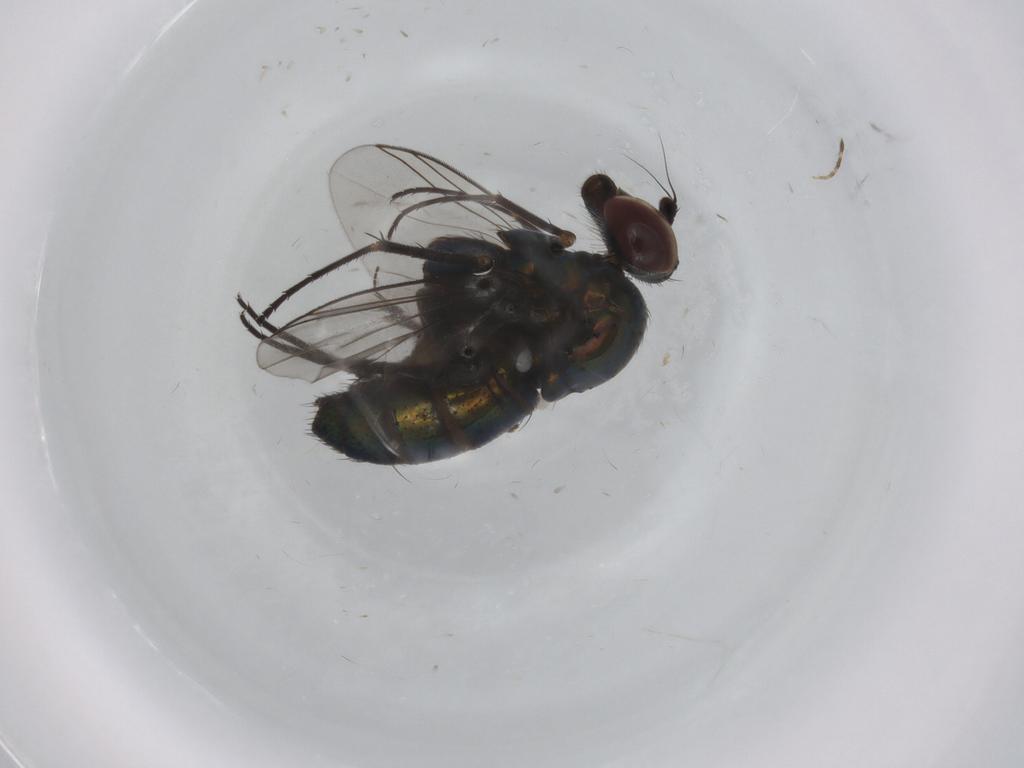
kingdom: Animalia
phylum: Arthropoda
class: Insecta
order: Diptera
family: Dolichopodidae
